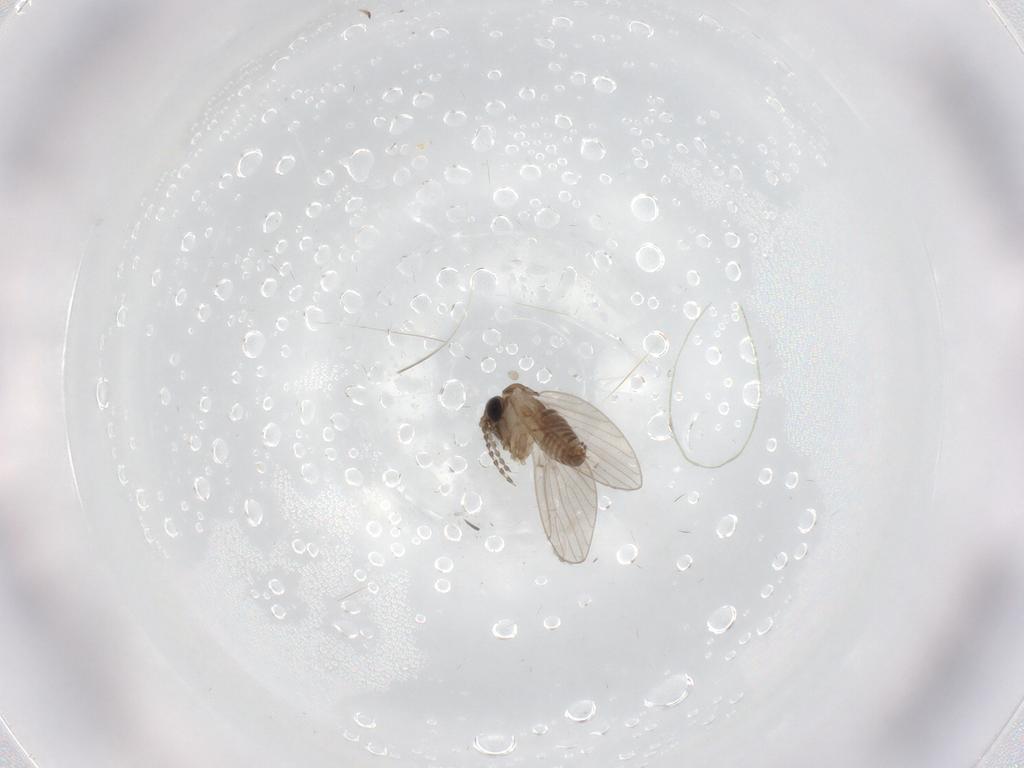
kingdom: Animalia
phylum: Arthropoda
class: Insecta
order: Diptera
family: Psychodidae
